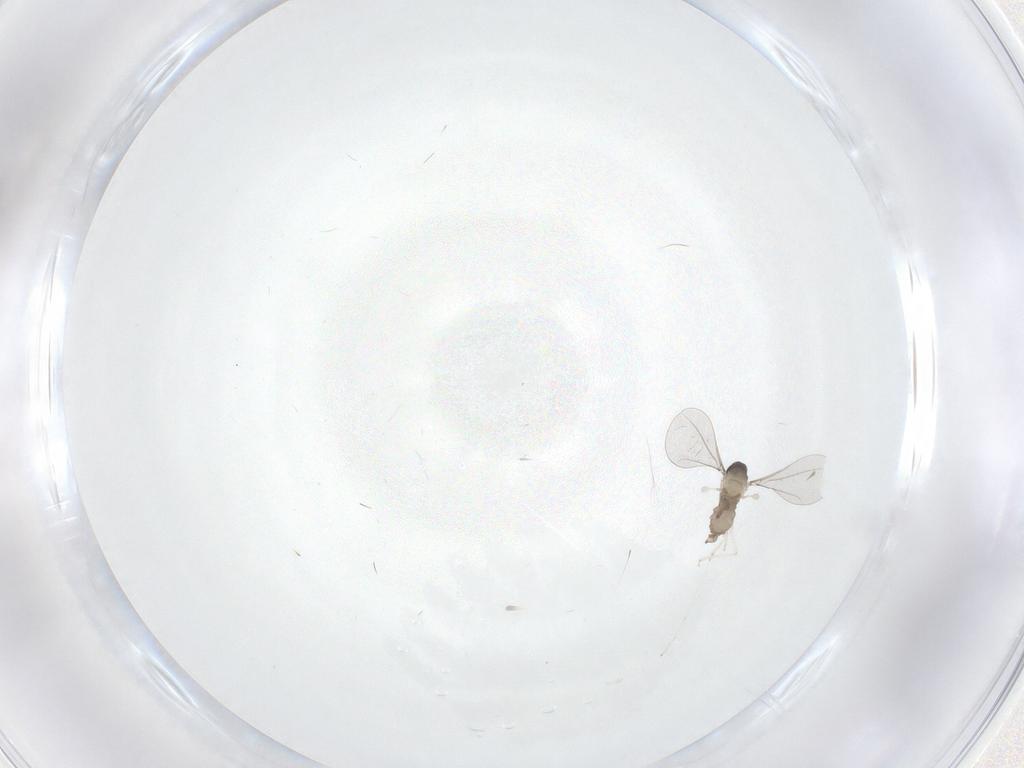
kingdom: Animalia
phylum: Arthropoda
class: Insecta
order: Diptera
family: Cecidomyiidae
